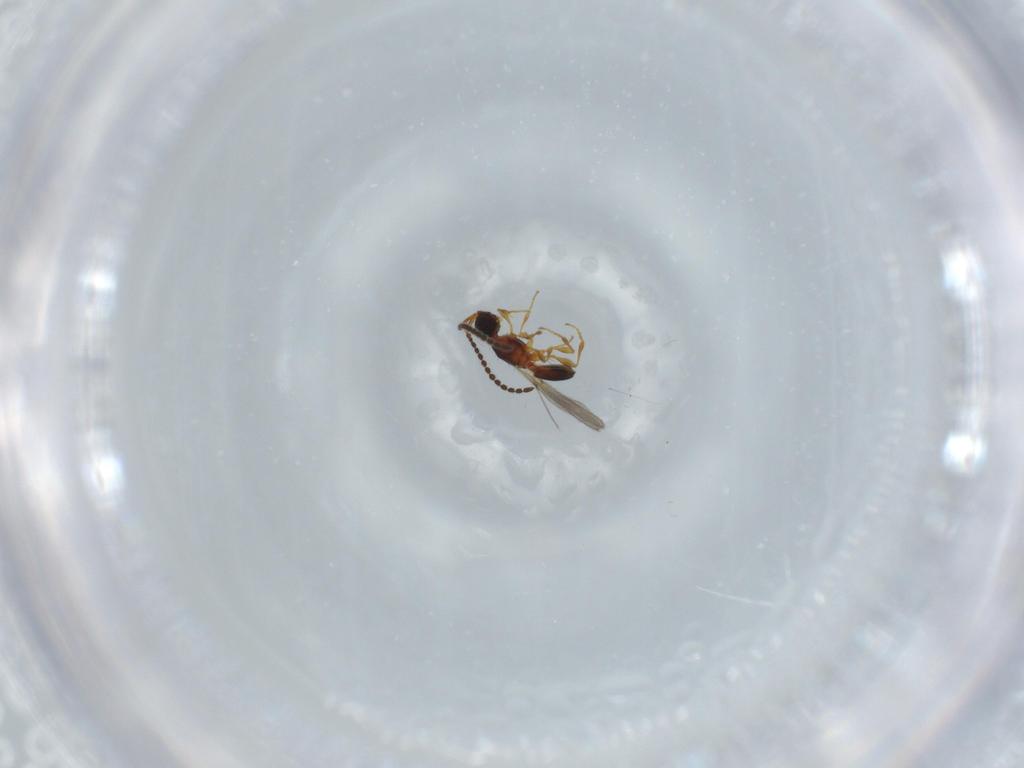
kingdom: Animalia
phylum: Arthropoda
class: Insecta
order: Hymenoptera
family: Diapriidae
